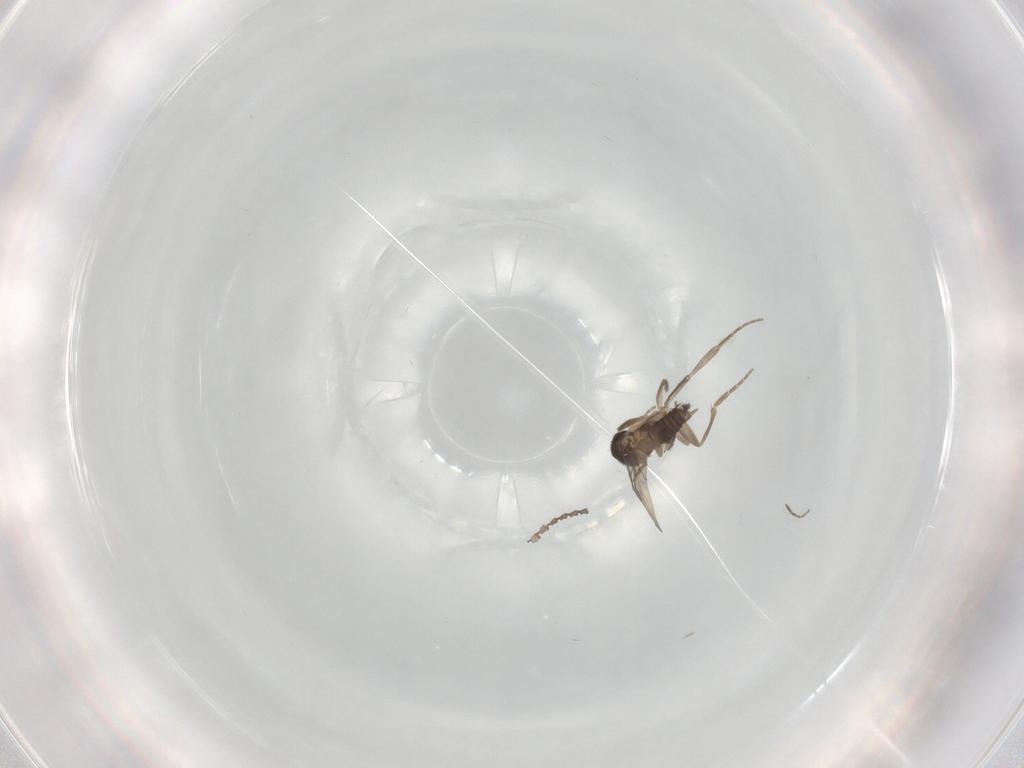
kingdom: Animalia
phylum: Arthropoda
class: Insecta
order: Diptera
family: Cecidomyiidae
